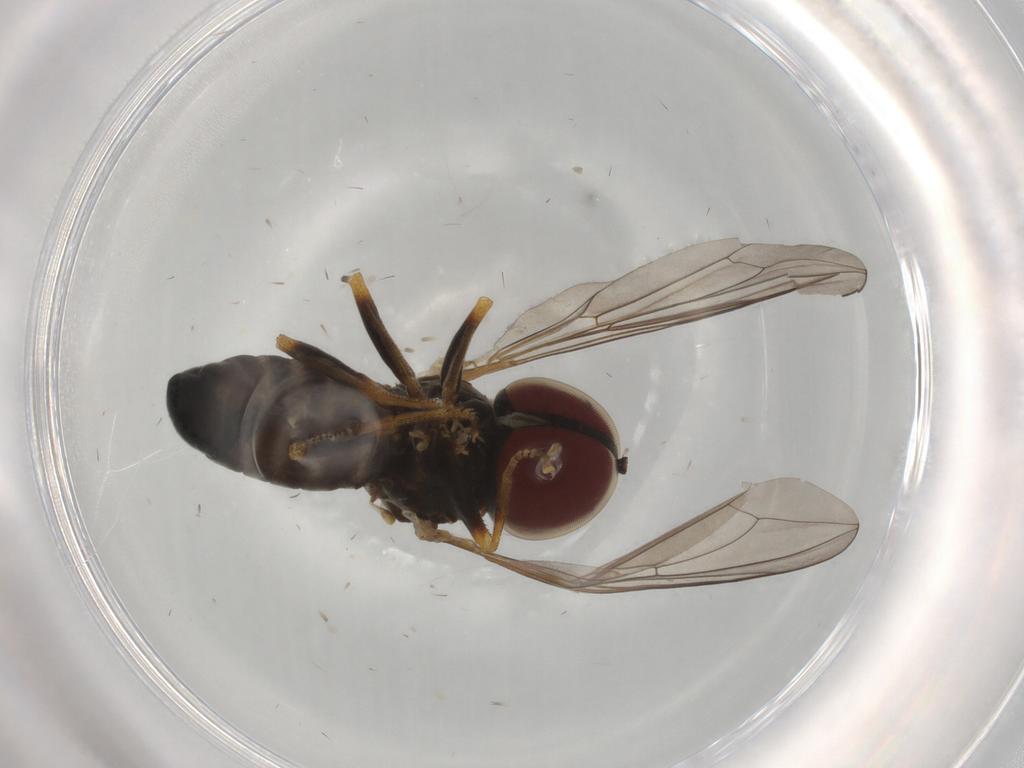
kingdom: Animalia
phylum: Arthropoda
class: Insecta
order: Diptera
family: Pipunculidae
